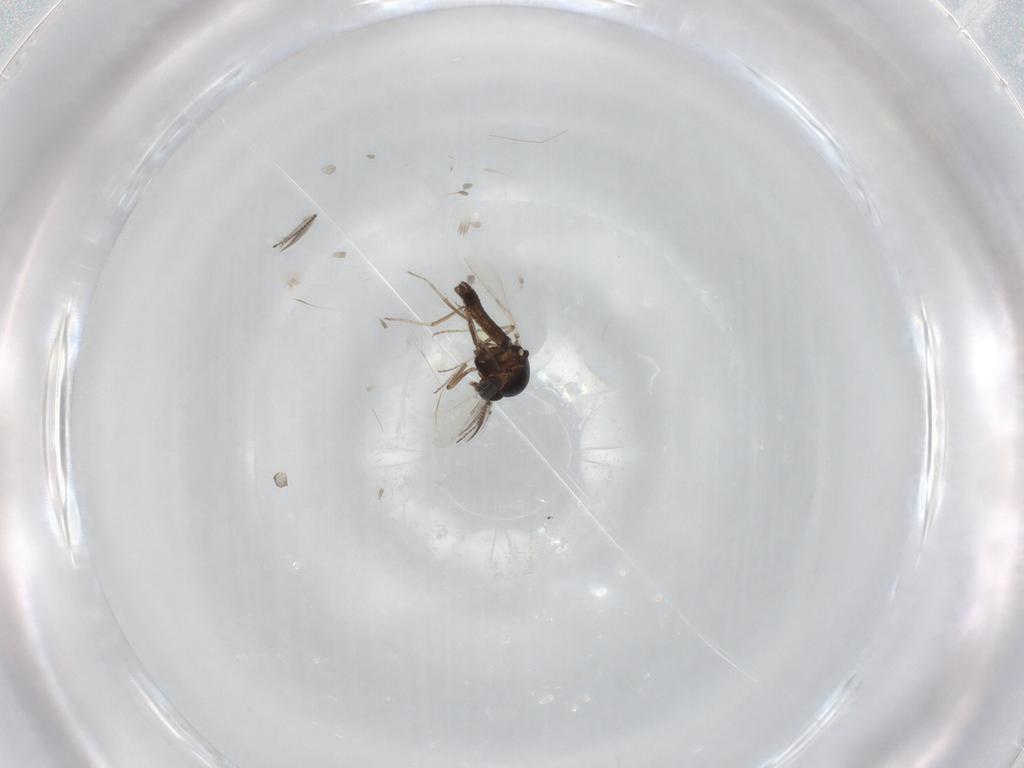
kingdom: Animalia
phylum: Arthropoda
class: Insecta
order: Diptera
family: Ceratopogonidae
